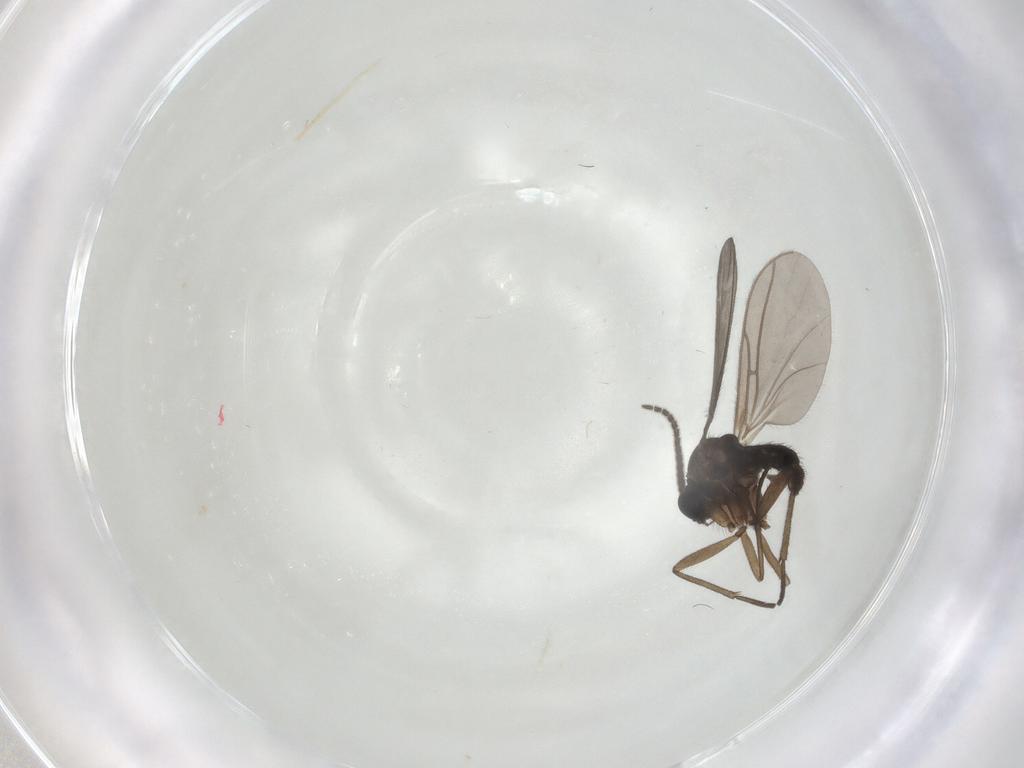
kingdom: Animalia
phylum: Arthropoda
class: Insecta
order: Diptera
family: Sciaridae
